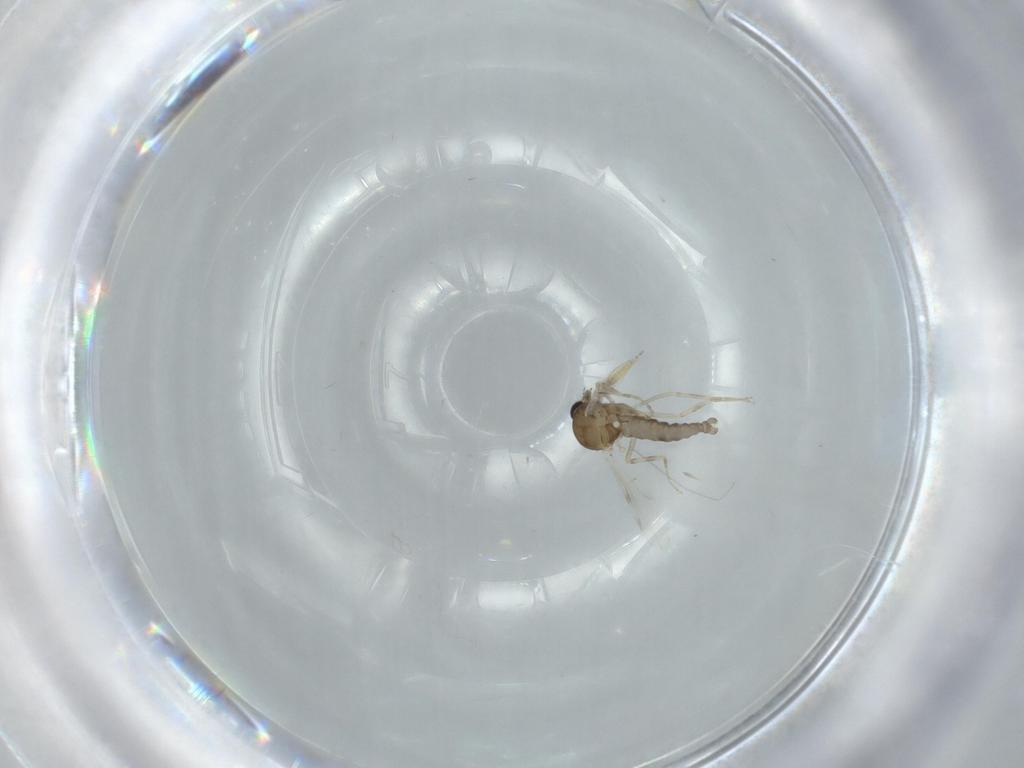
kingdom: Animalia
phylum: Arthropoda
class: Insecta
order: Diptera
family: Ceratopogonidae
